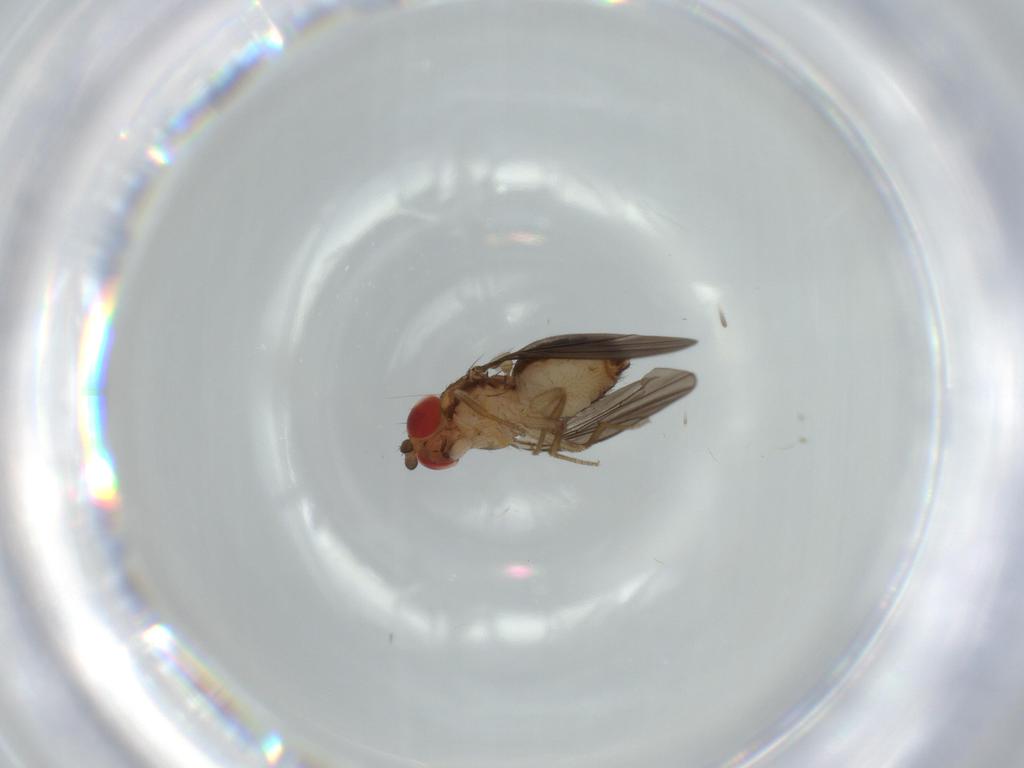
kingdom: Animalia
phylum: Arthropoda
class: Insecta
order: Diptera
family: Drosophilidae
